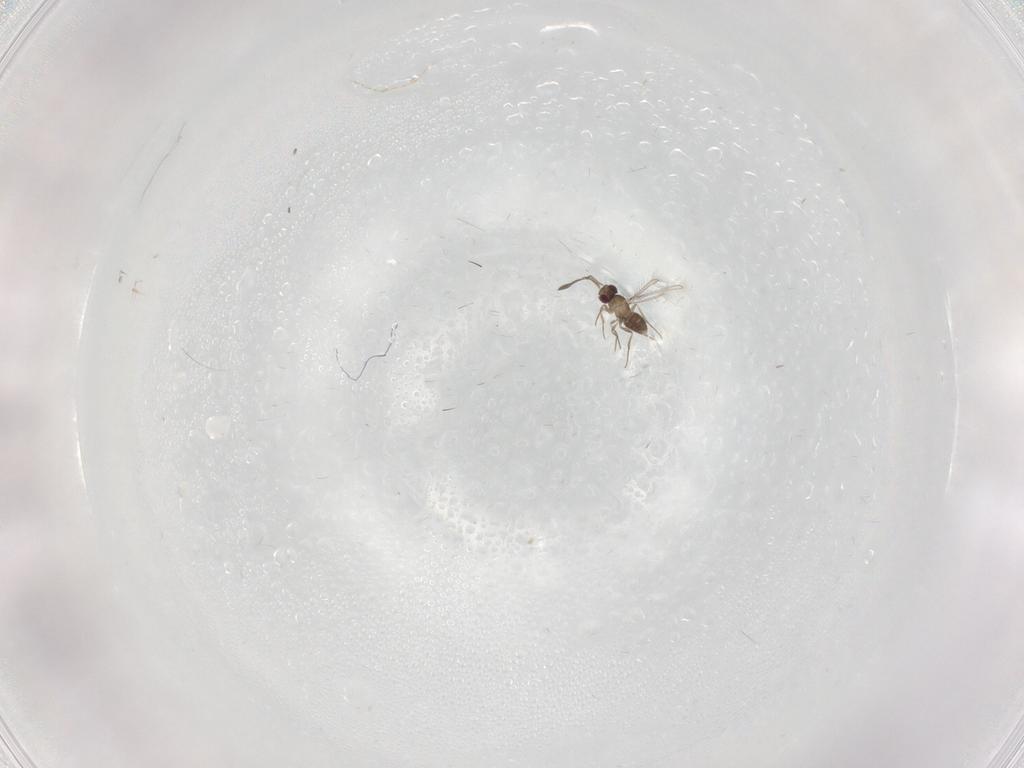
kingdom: Animalia
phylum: Arthropoda
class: Insecta
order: Hymenoptera
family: Mymaridae
